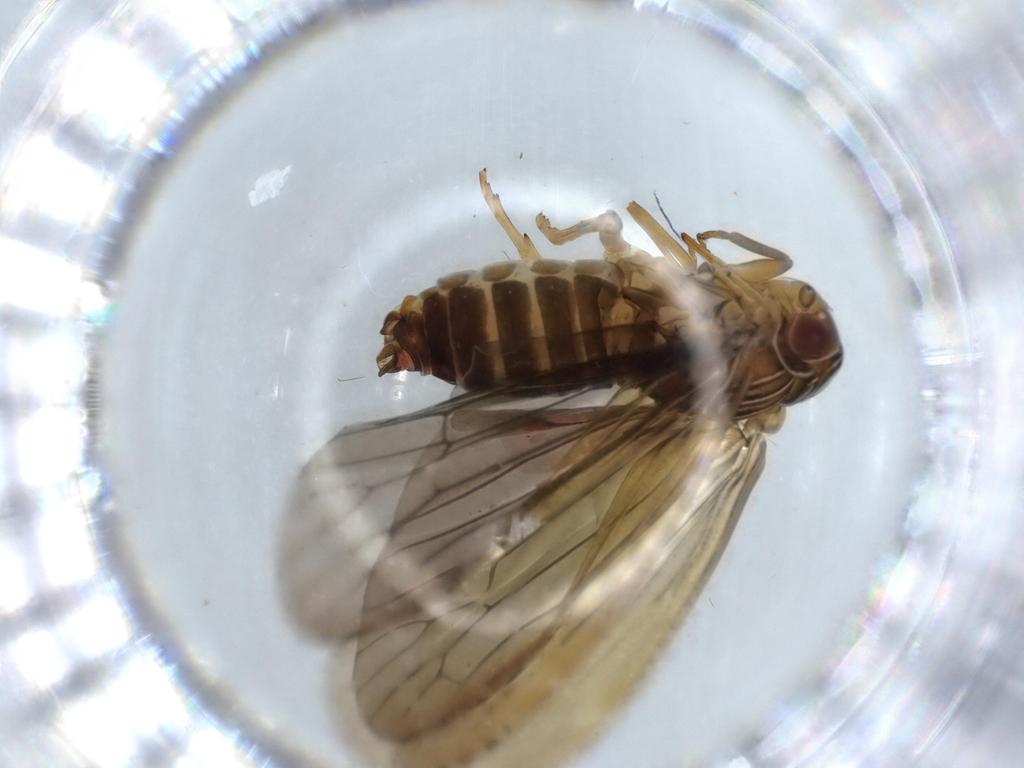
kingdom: Animalia
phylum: Arthropoda
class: Insecta
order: Hemiptera
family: Achilidae
